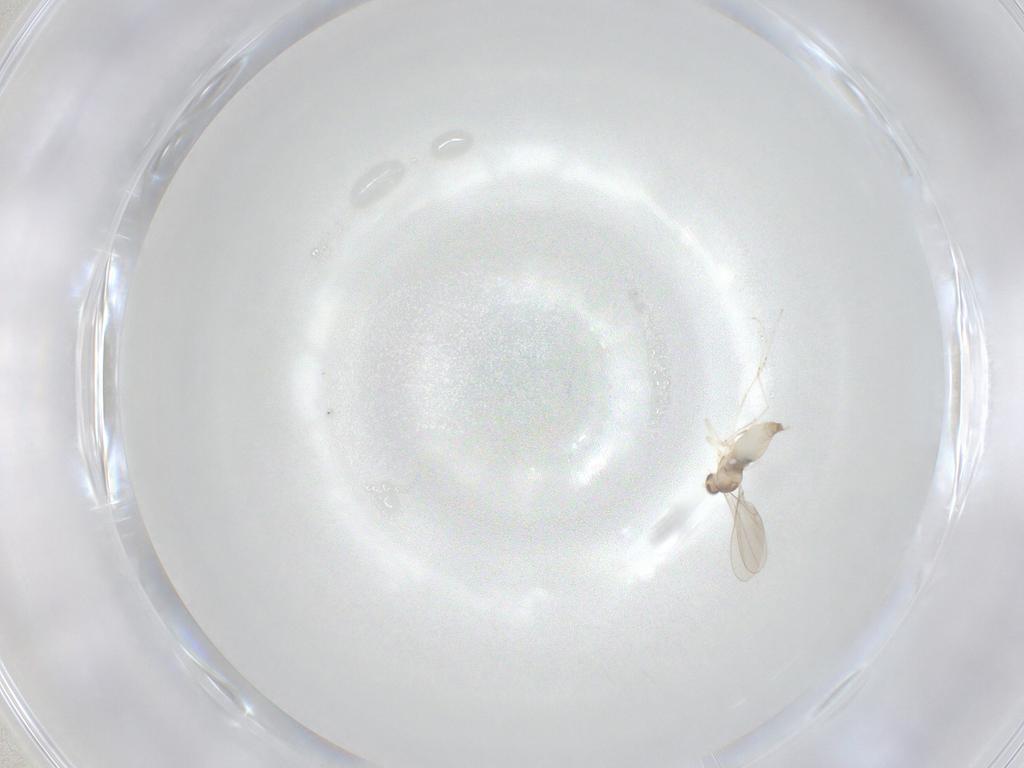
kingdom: Animalia
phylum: Arthropoda
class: Insecta
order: Diptera
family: Cecidomyiidae
